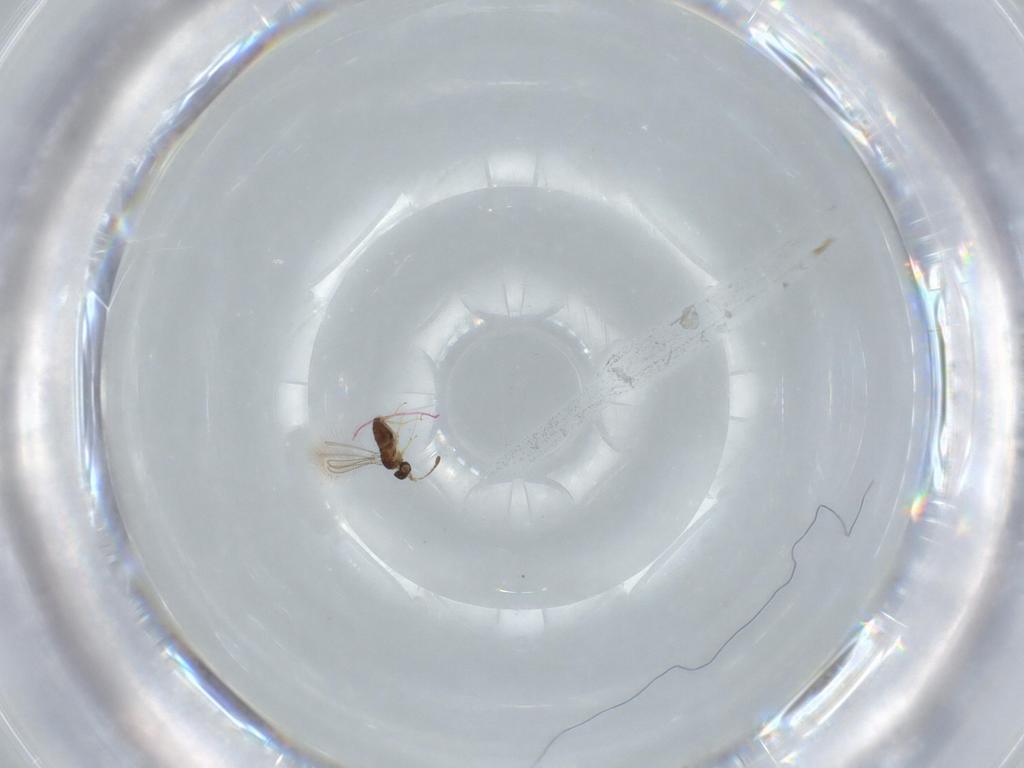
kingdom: Animalia
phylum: Arthropoda
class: Insecta
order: Hymenoptera
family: Mymaridae
